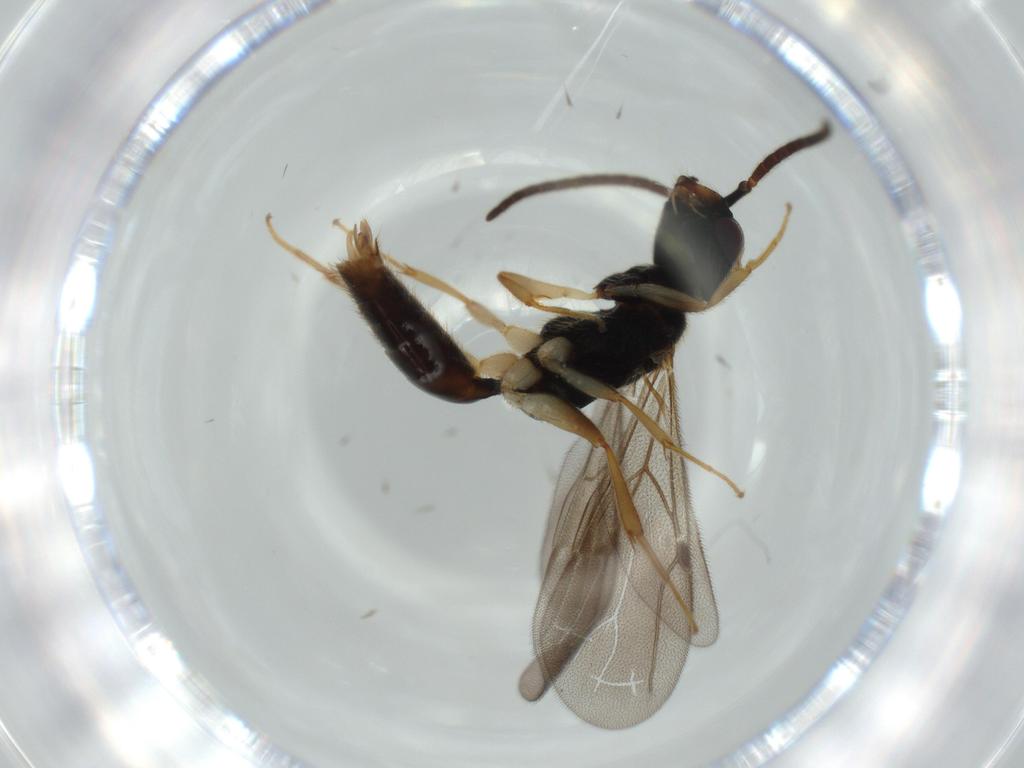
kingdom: Animalia
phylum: Arthropoda
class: Insecta
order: Hymenoptera
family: Bethylidae
